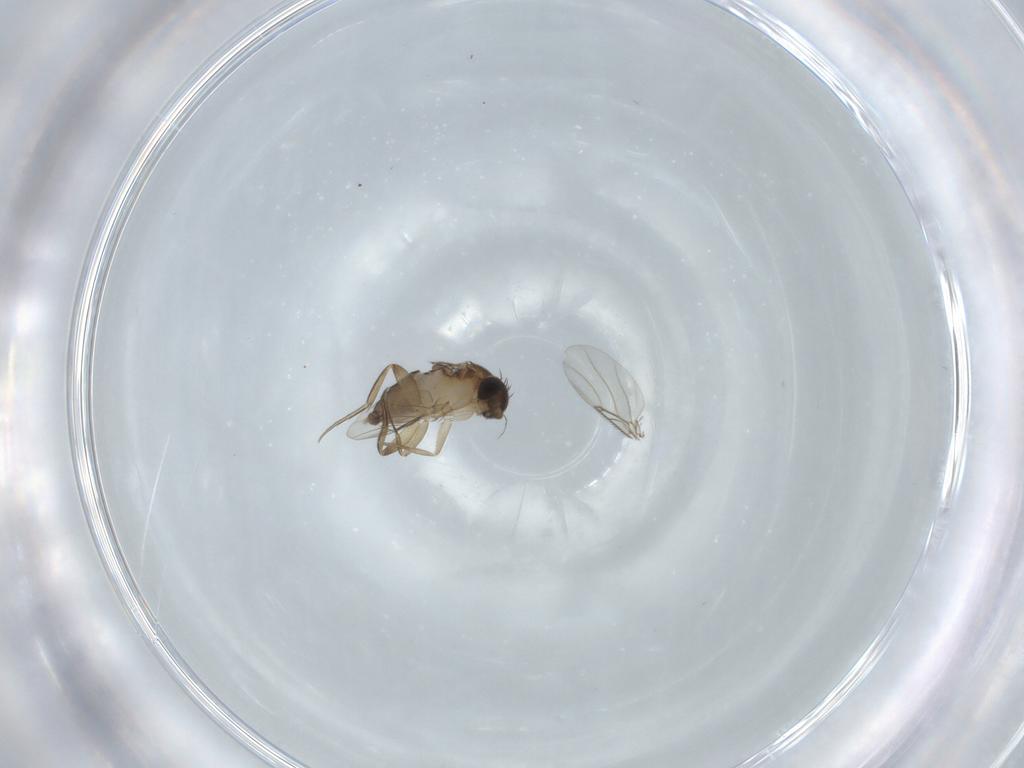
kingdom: Animalia
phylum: Arthropoda
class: Insecta
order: Diptera
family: Phoridae
